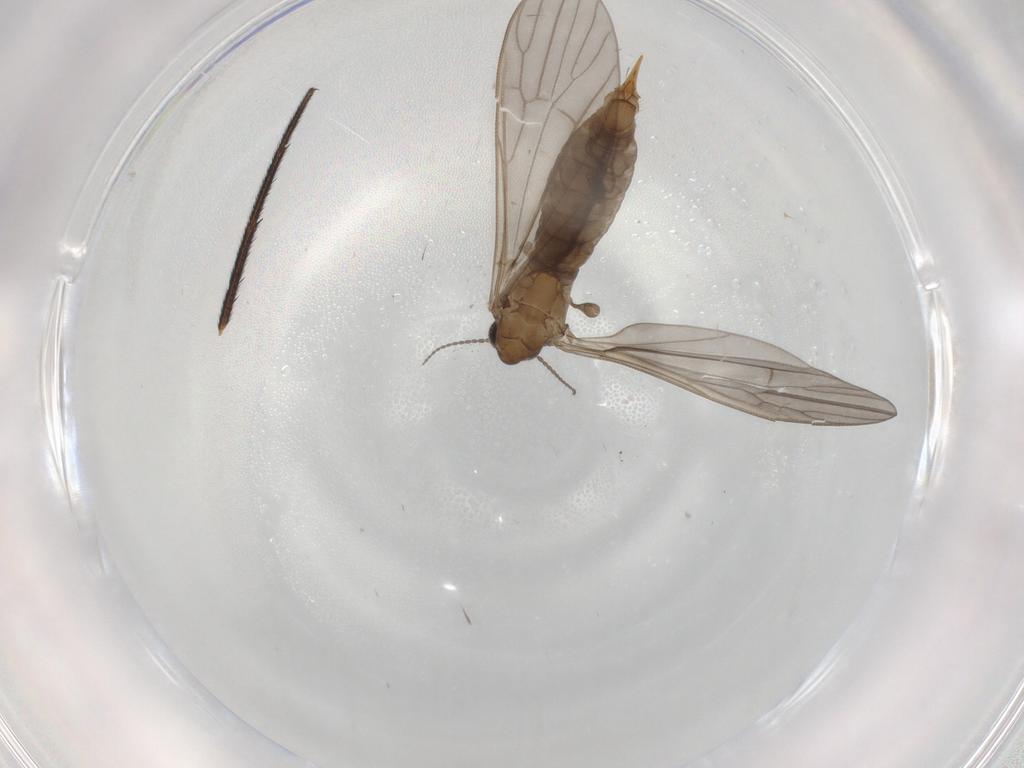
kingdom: Animalia
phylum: Arthropoda
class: Insecta
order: Diptera
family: Limoniidae
